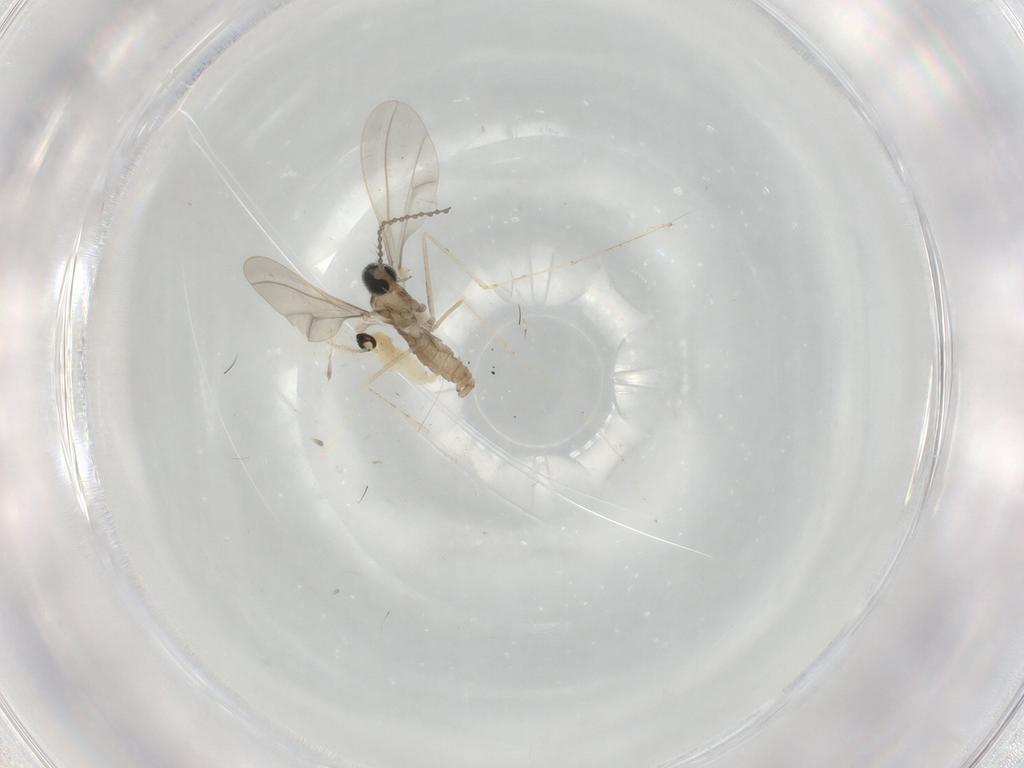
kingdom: Animalia
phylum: Arthropoda
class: Insecta
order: Diptera
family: Cecidomyiidae
